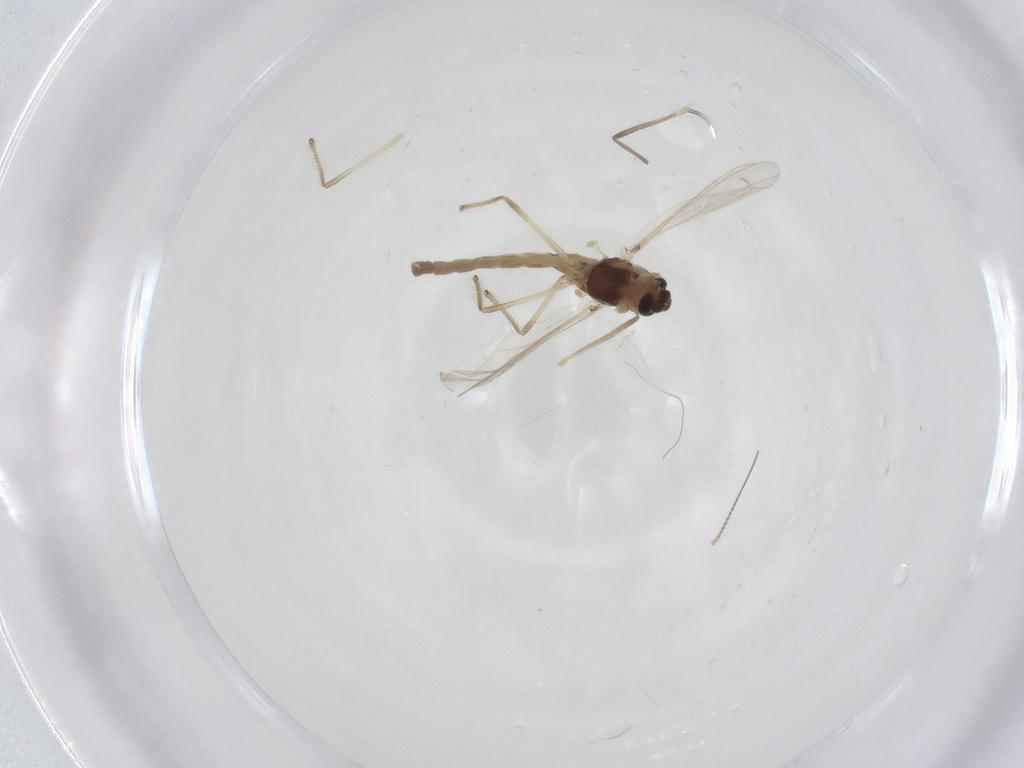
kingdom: Animalia
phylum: Arthropoda
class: Insecta
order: Diptera
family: Chironomidae
